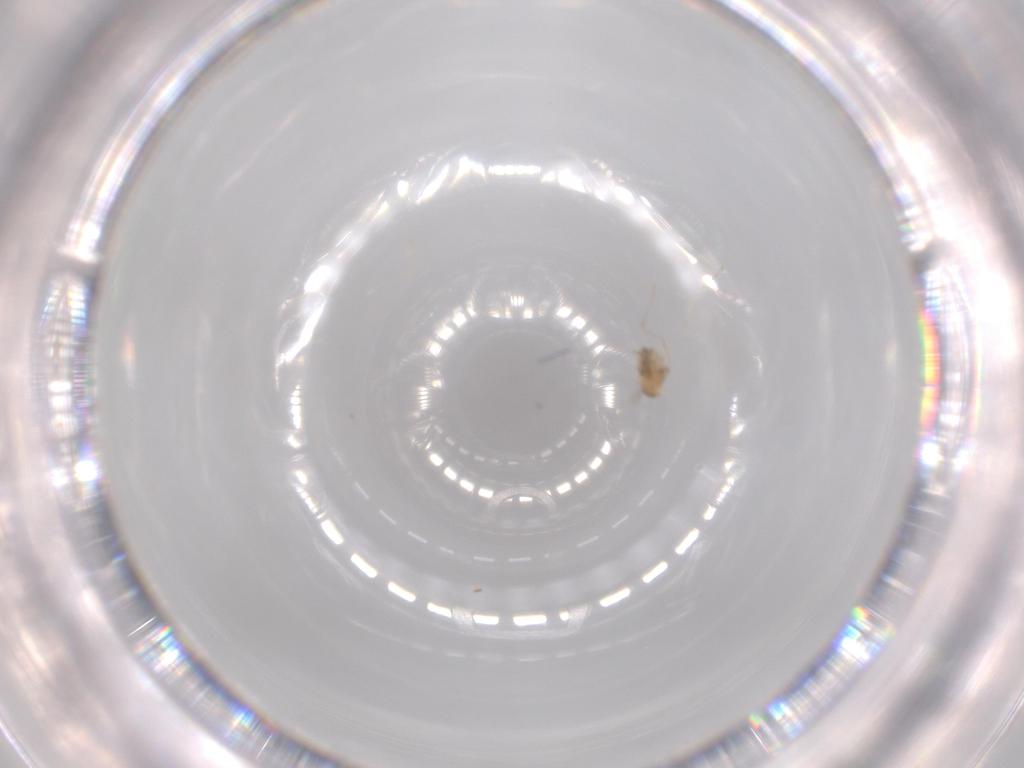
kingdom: Animalia
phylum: Arthropoda
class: Insecta
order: Diptera
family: Cecidomyiidae
